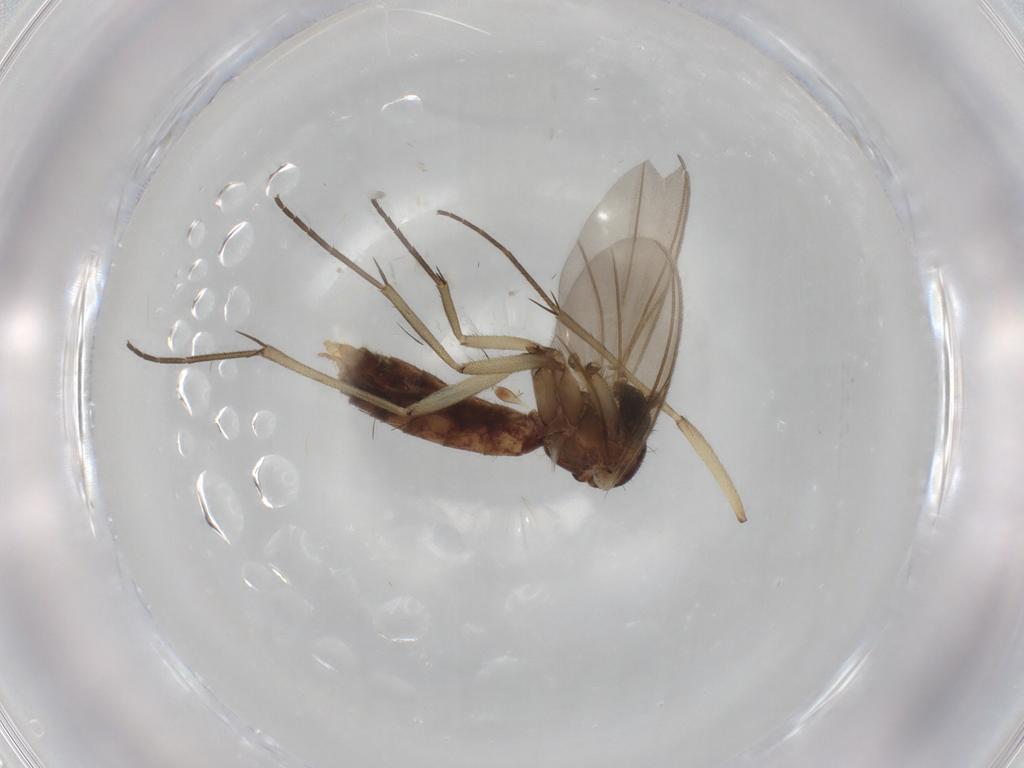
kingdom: Animalia
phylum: Arthropoda
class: Insecta
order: Diptera
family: Mycetophilidae
